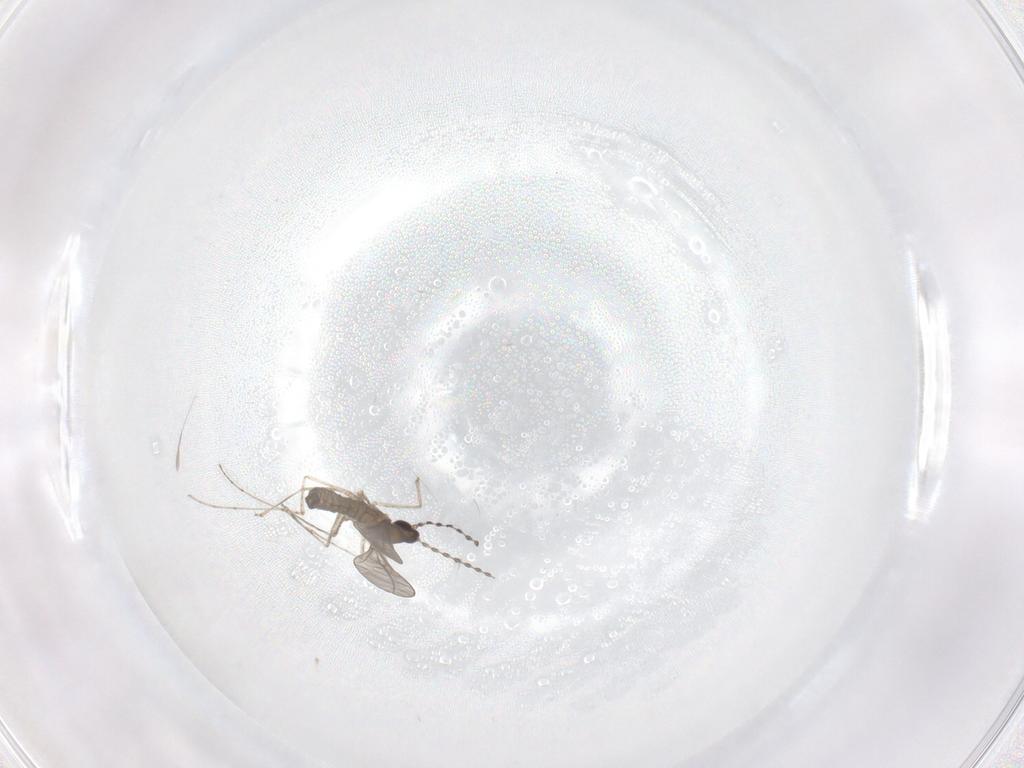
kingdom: Animalia
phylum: Arthropoda
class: Insecta
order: Diptera
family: Cecidomyiidae
